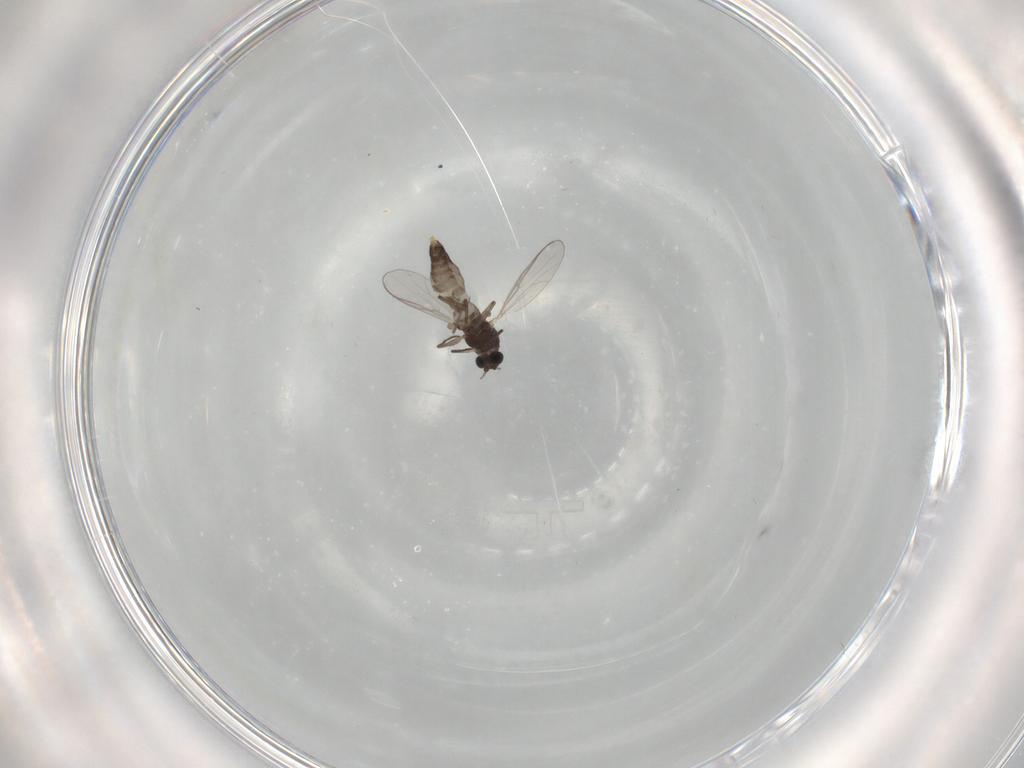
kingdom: Animalia
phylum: Arthropoda
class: Insecta
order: Diptera
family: Chironomidae
